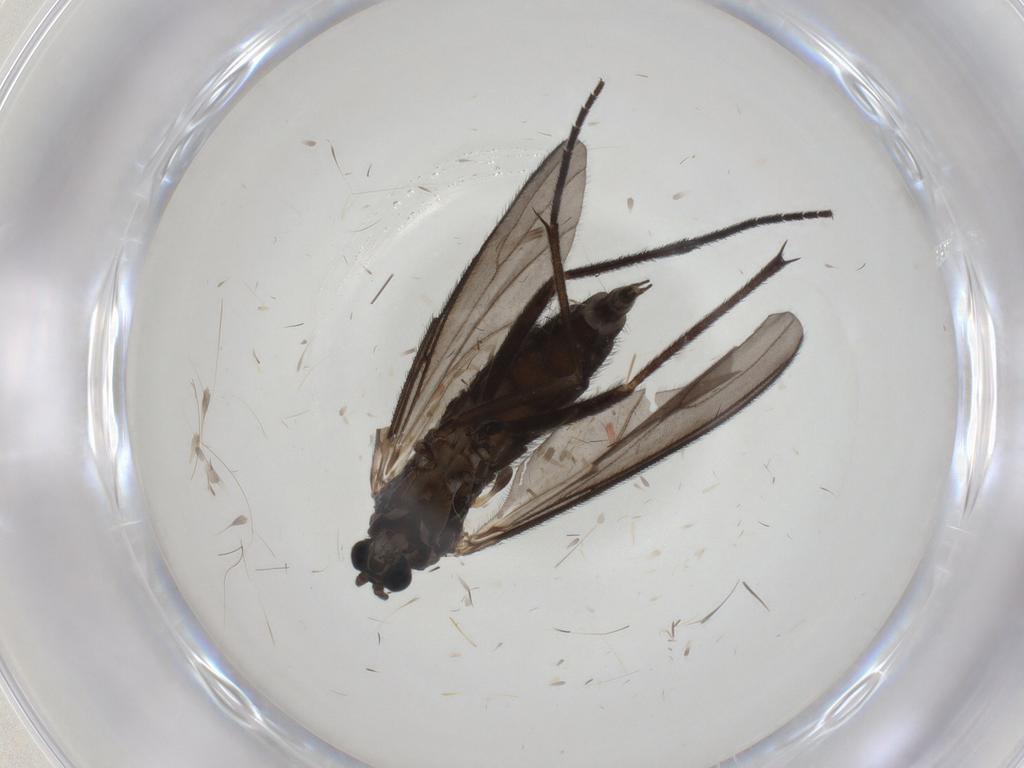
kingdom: Animalia
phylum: Arthropoda
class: Insecta
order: Diptera
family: Sciaridae
